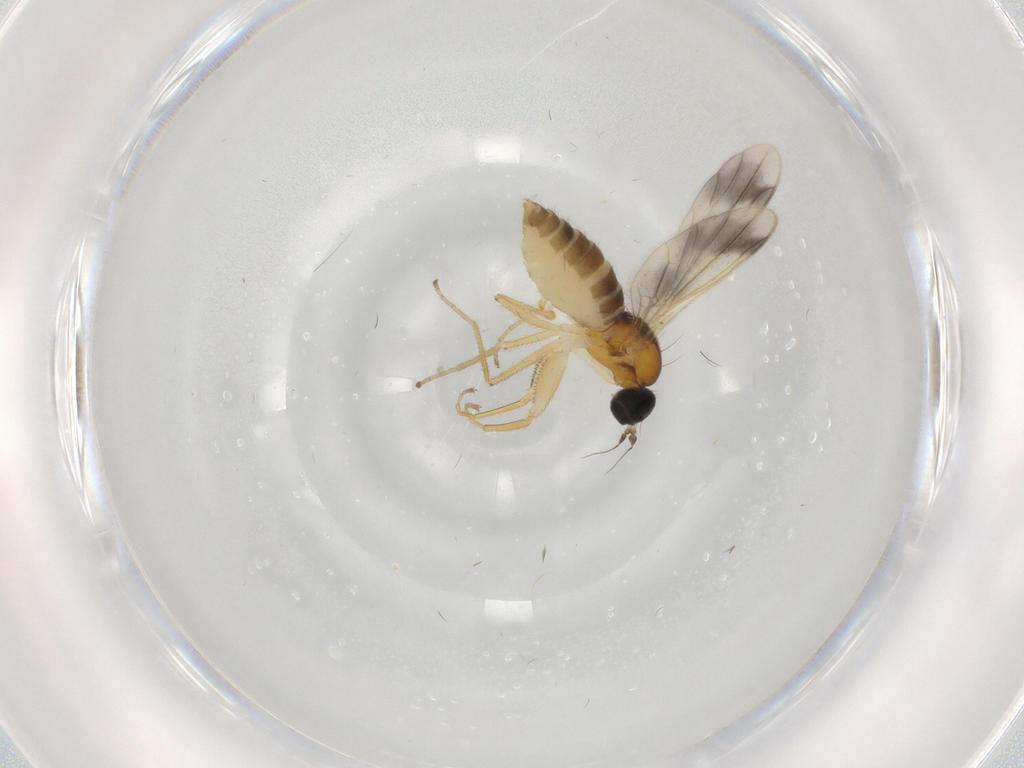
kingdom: Animalia
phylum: Arthropoda
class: Insecta
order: Diptera
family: Empididae
